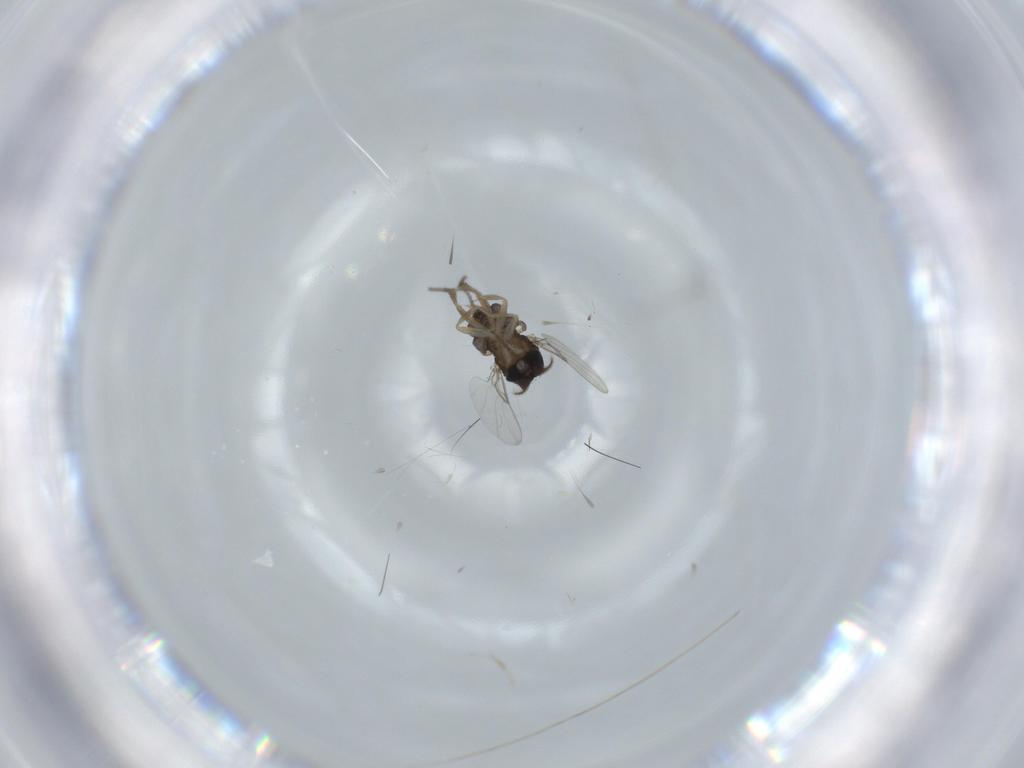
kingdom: Animalia
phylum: Arthropoda
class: Insecta
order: Diptera
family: Phoridae
